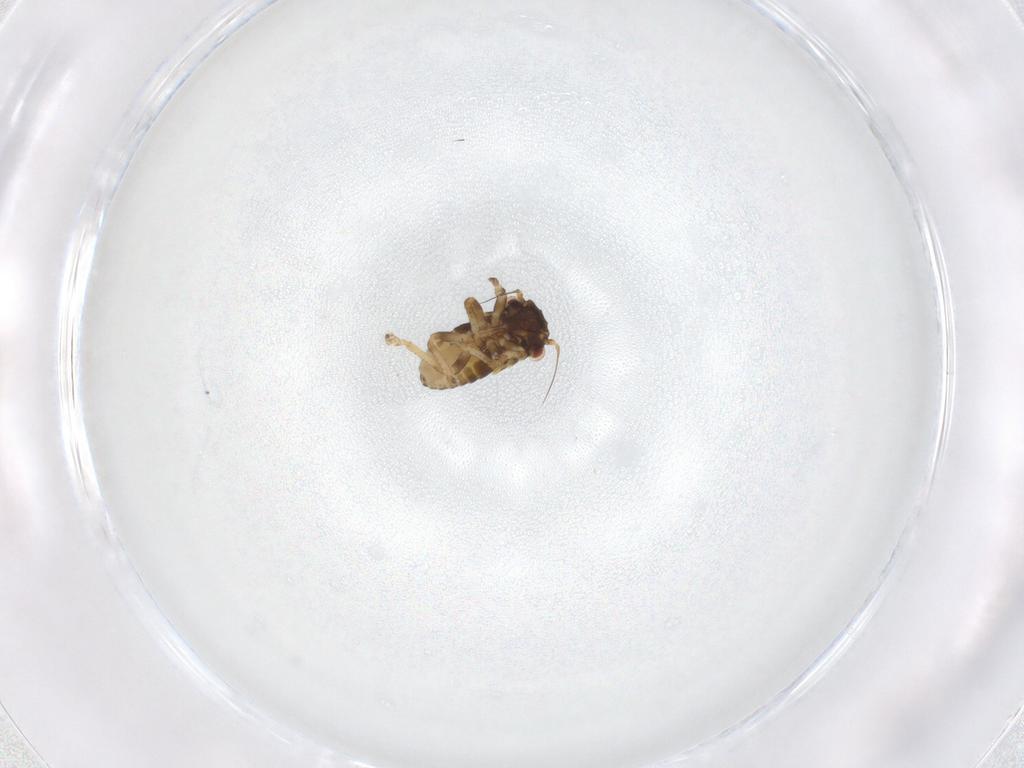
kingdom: Animalia
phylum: Arthropoda
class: Insecta
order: Hemiptera
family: Cicadellidae
